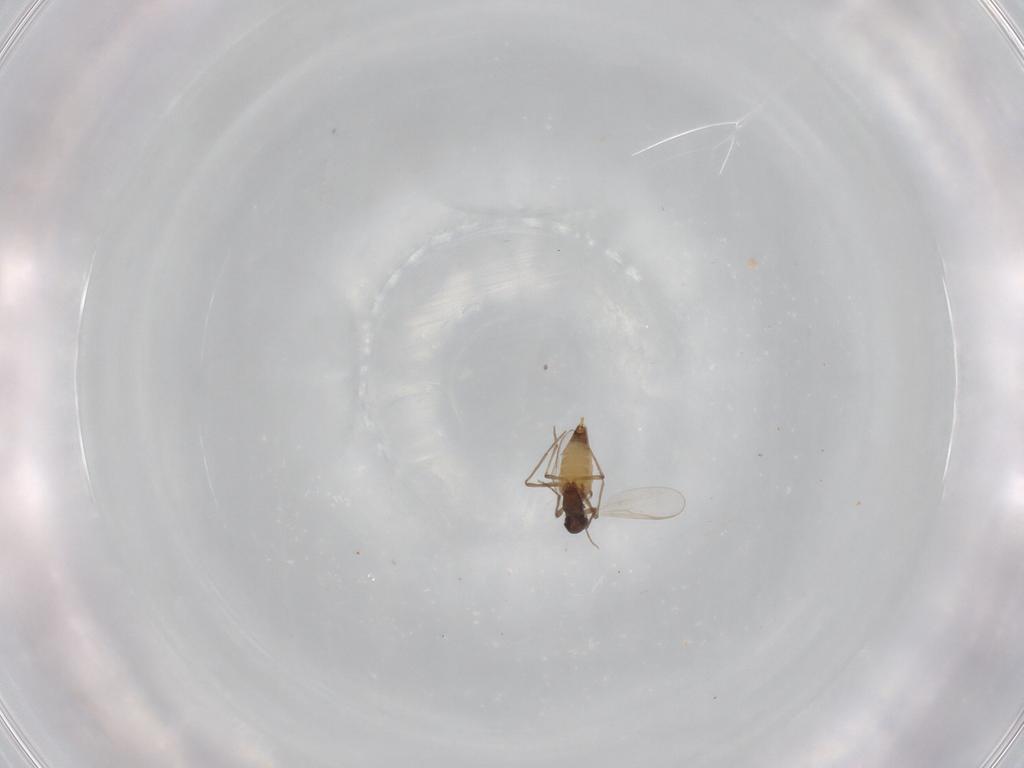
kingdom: Animalia
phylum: Arthropoda
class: Insecta
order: Diptera
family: Chironomidae
